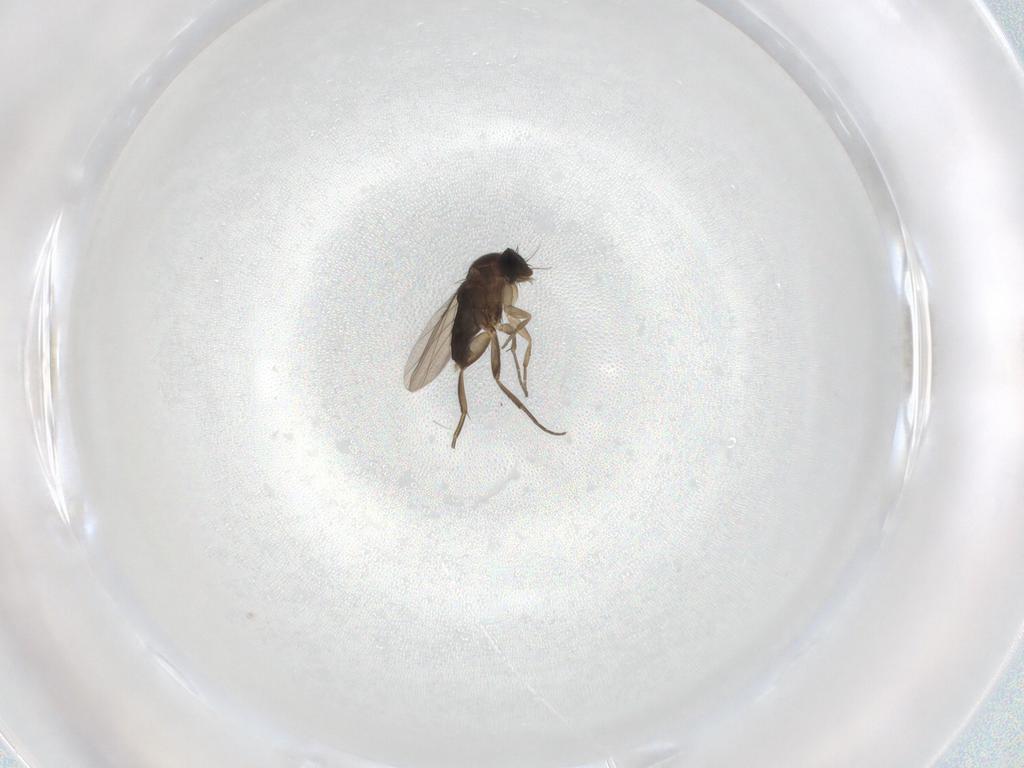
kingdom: Animalia
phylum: Arthropoda
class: Insecta
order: Diptera
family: Phoridae
